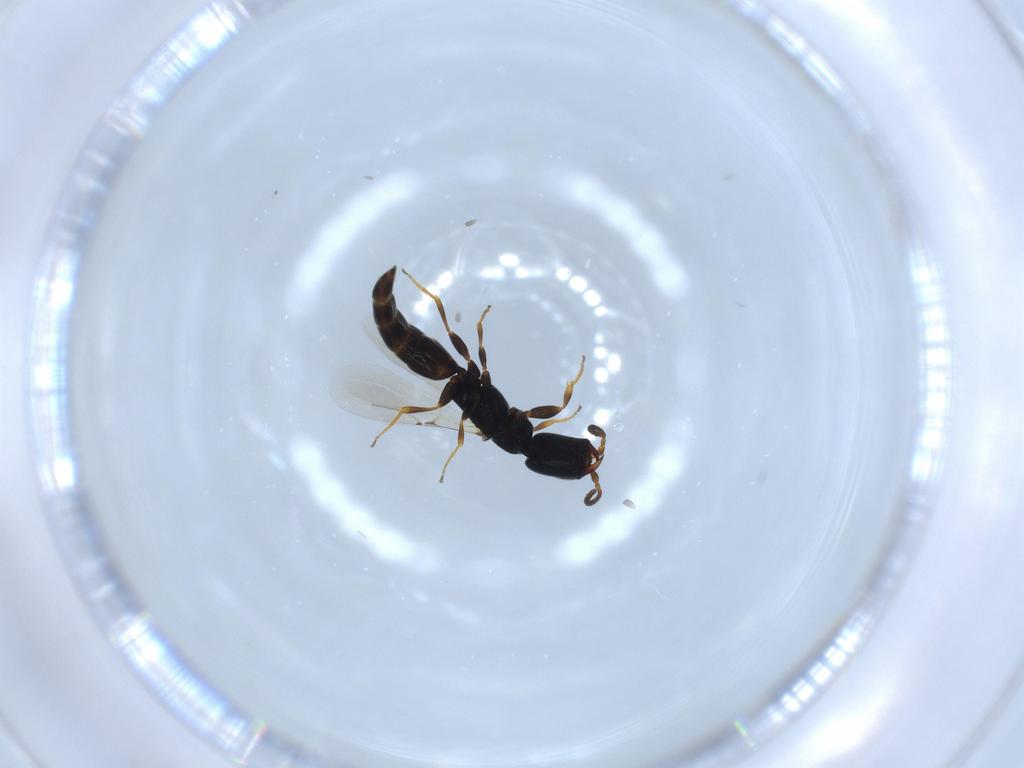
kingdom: Animalia
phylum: Arthropoda
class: Insecta
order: Hymenoptera
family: Bethylidae
